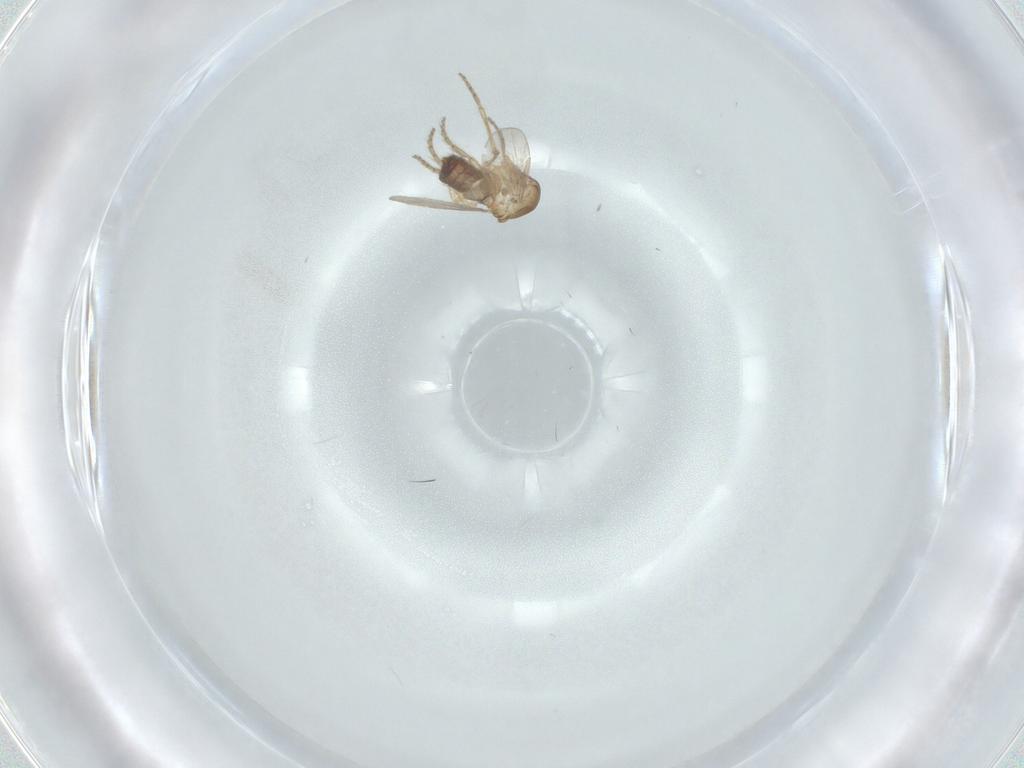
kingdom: Animalia
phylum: Arthropoda
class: Insecta
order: Diptera
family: Ceratopogonidae
